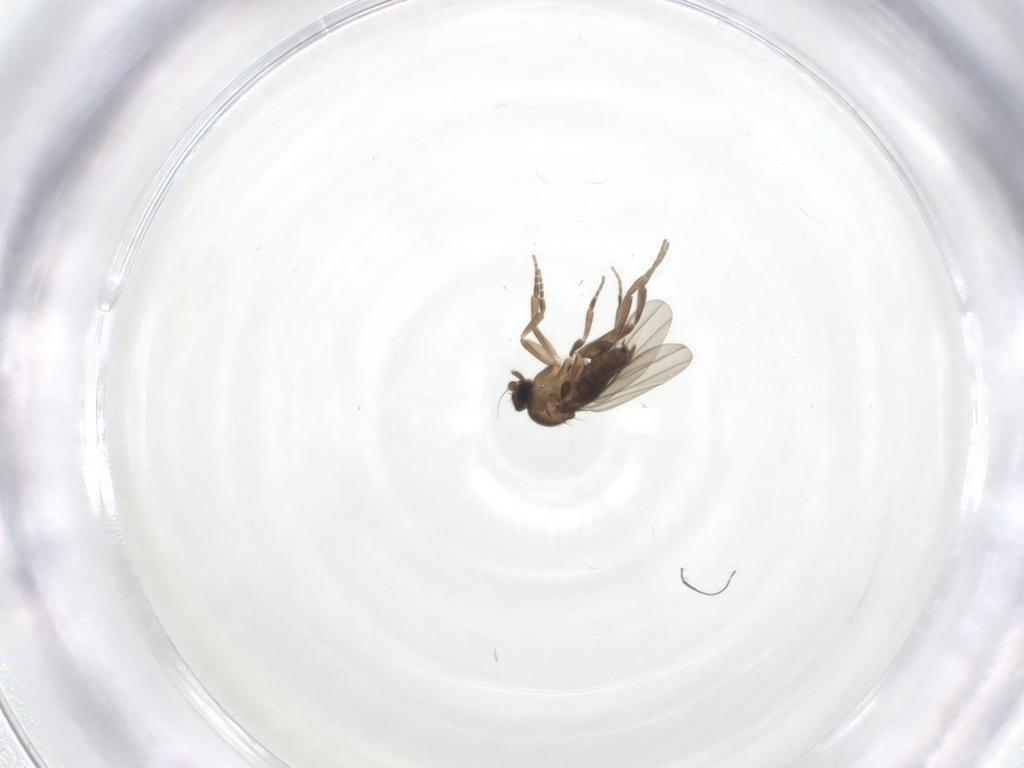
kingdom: Animalia
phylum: Arthropoda
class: Insecta
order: Diptera
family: Phoridae
